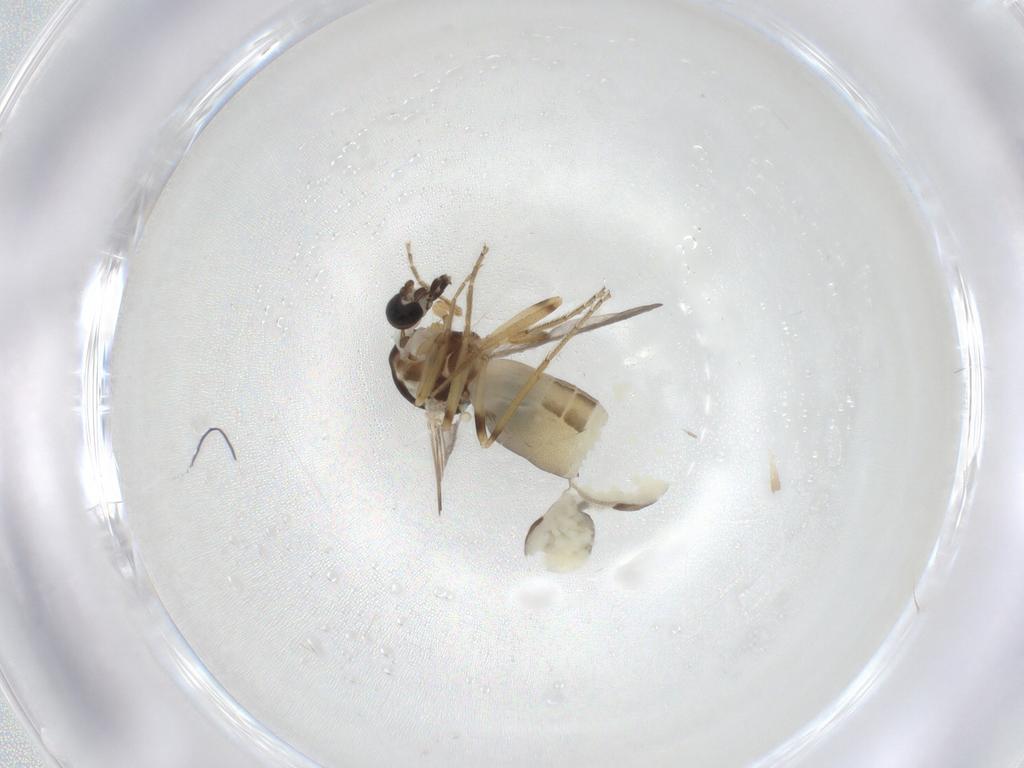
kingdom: Animalia
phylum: Arthropoda
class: Insecta
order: Diptera
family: Ceratopogonidae
